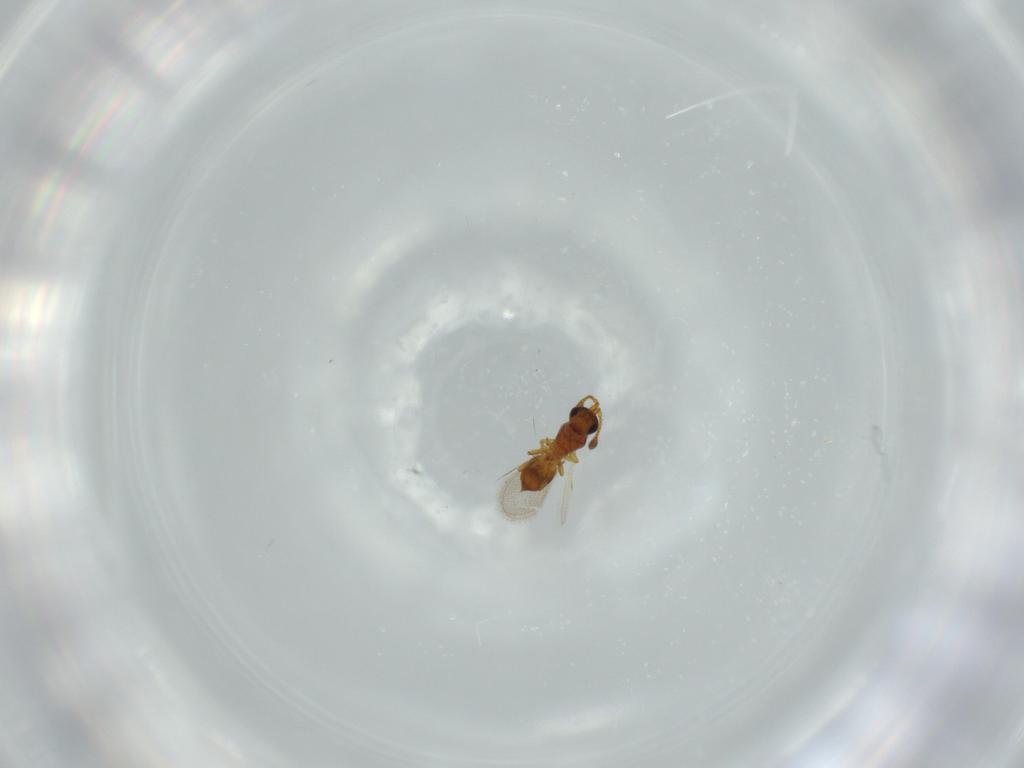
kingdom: Animalia
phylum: Arthropoda
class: Insecta
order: Hymenoptera
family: Diapriidae
